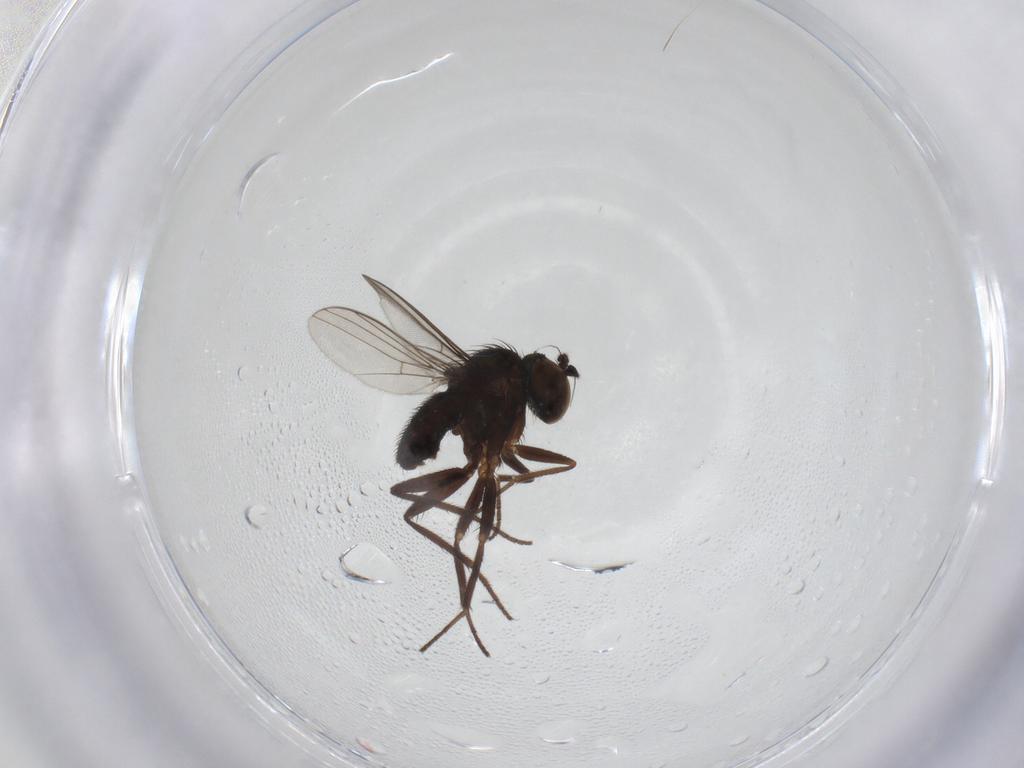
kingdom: Animalia
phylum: Arthropoda
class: Insecta
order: Diptera
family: Dolichopodidae
